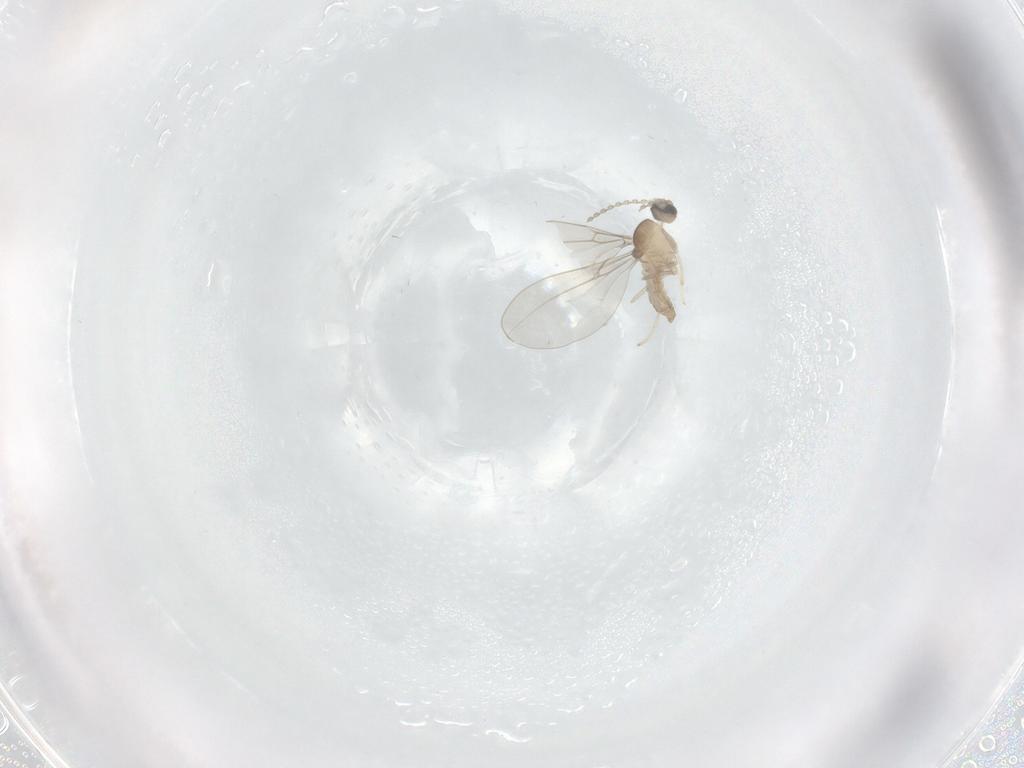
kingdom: Animalia
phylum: Arthropoda
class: Insecta
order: Diptera
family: Cecidomyiidae
